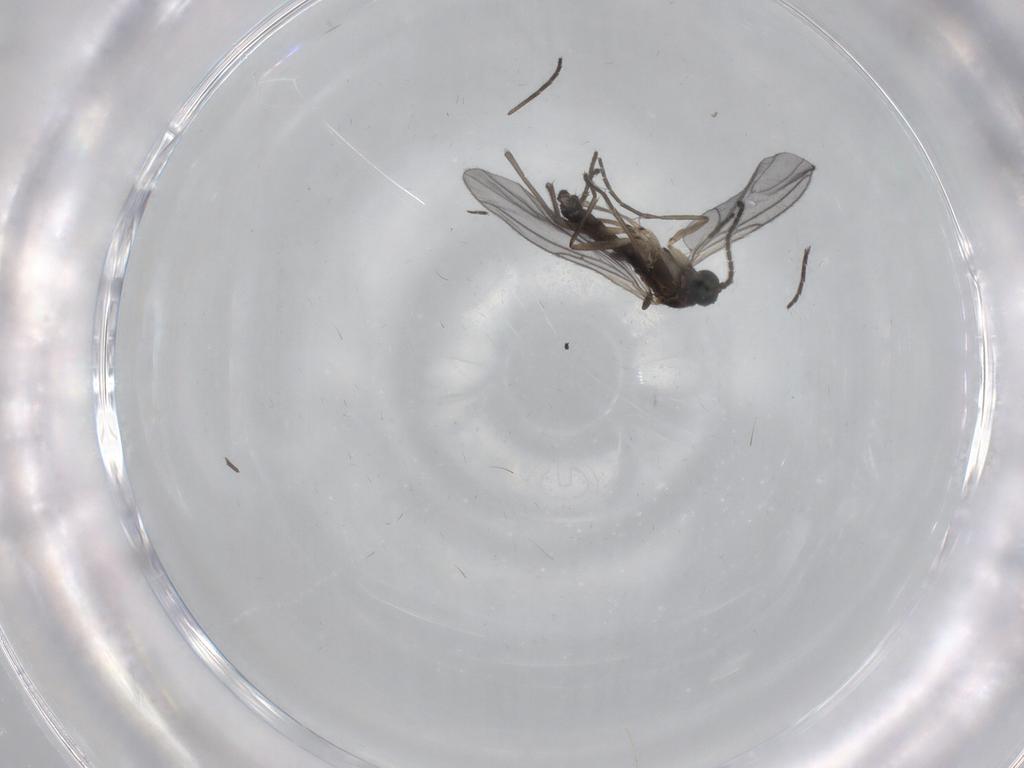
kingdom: Animalia
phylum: Arthropoda
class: Insecta
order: Diptera
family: Sciaridae
